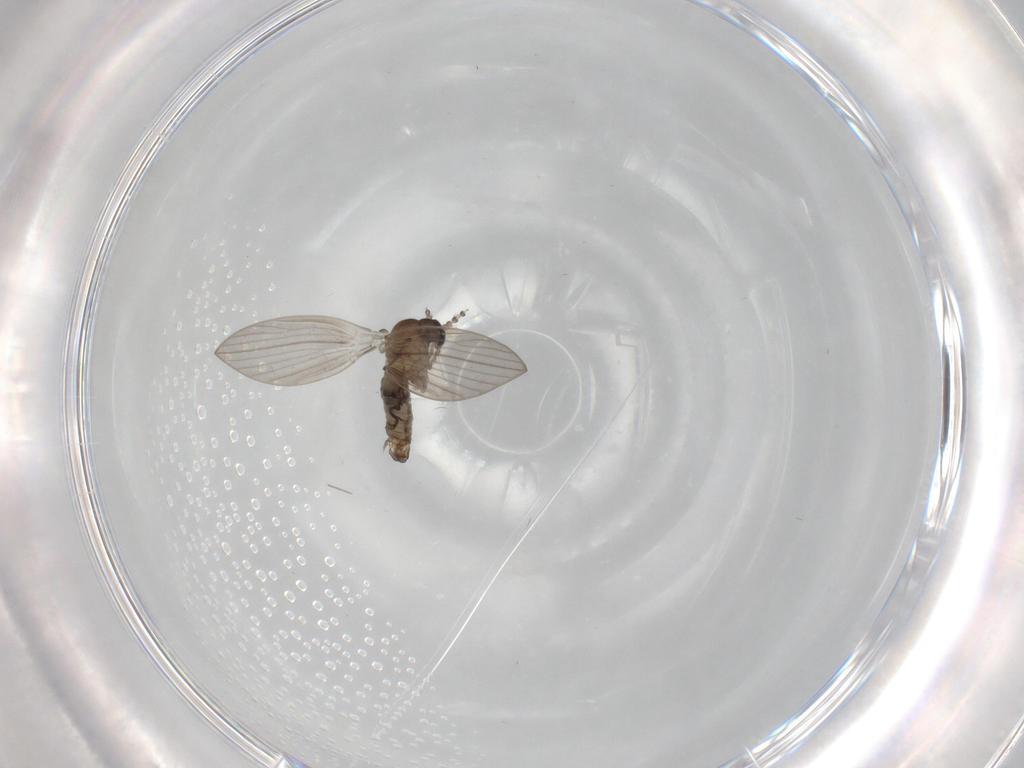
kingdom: Animalia
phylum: Arthropoda
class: Insecta
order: Diptera
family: Psychodidae
